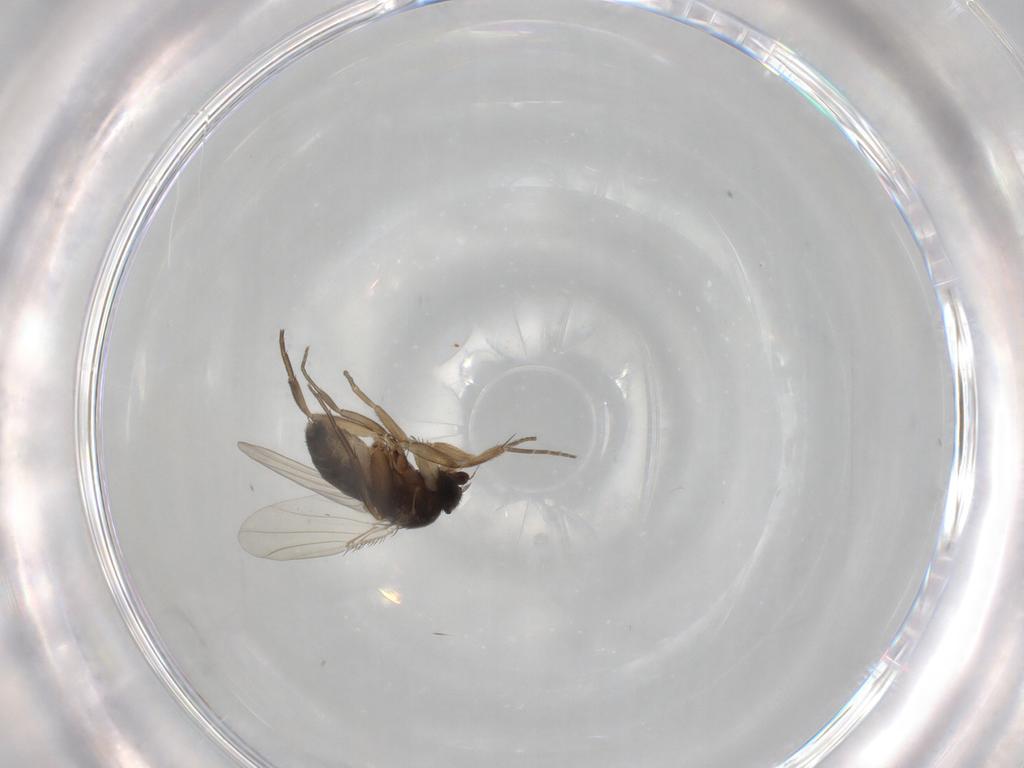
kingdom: Animalia
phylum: Arthropoda
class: Insecta
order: Diptera
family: Phoridae
